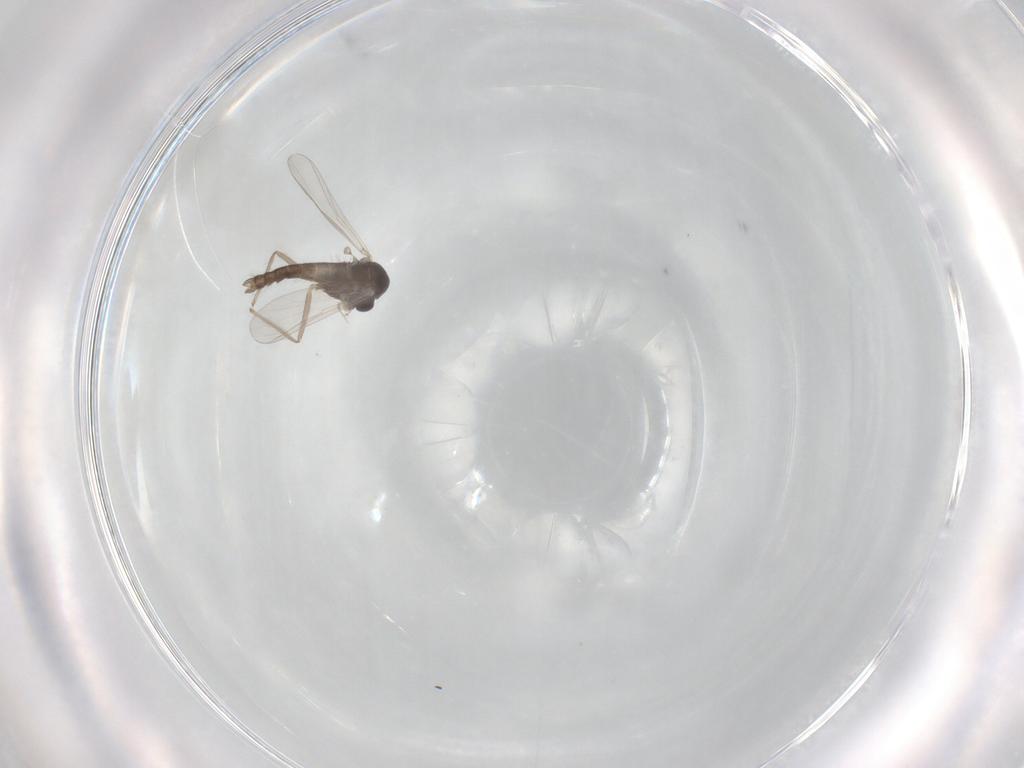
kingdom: Animalia
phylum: Arthropoda
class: Insecta
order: Diptera
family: Chironomidae
